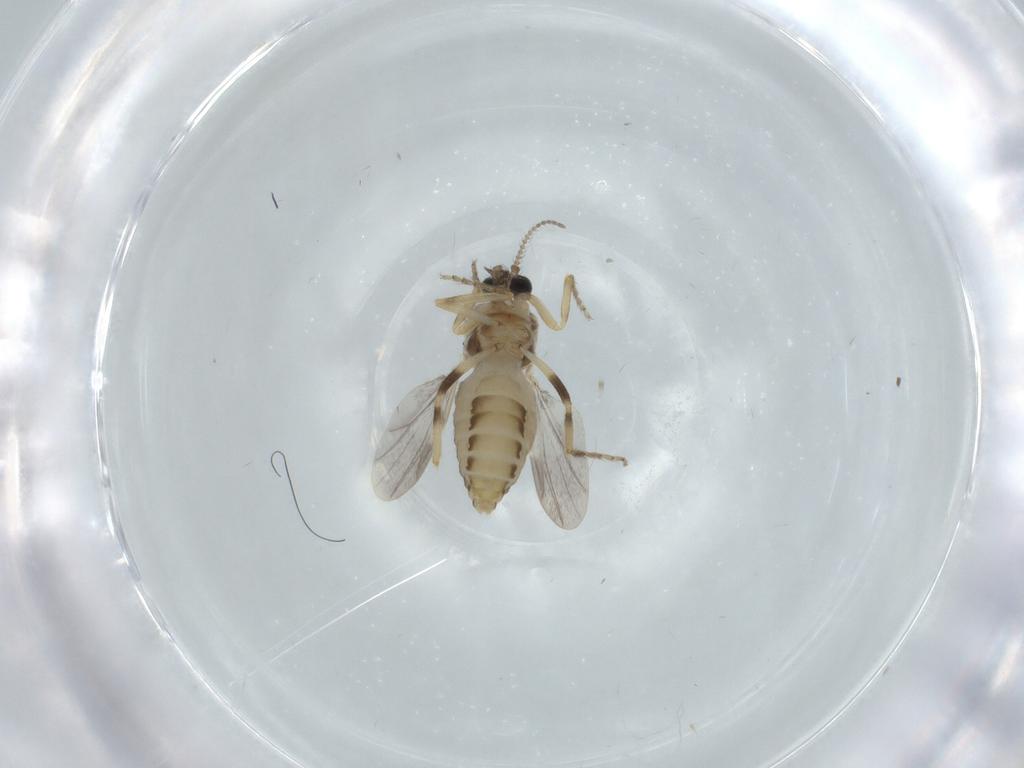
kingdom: Animalia
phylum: Arthropoda
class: Insecta
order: Diptera
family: Ceratopogonidae
